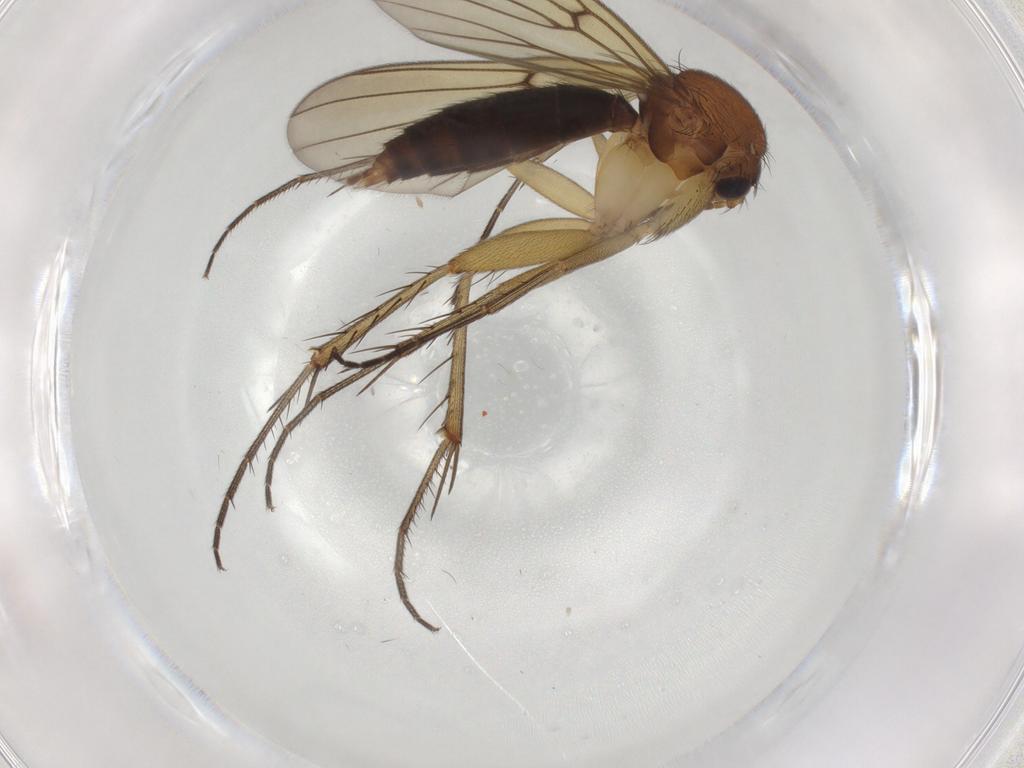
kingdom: Animalia
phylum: Arthropoda
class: Insecta
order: Diptera
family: Mycetophilidae
